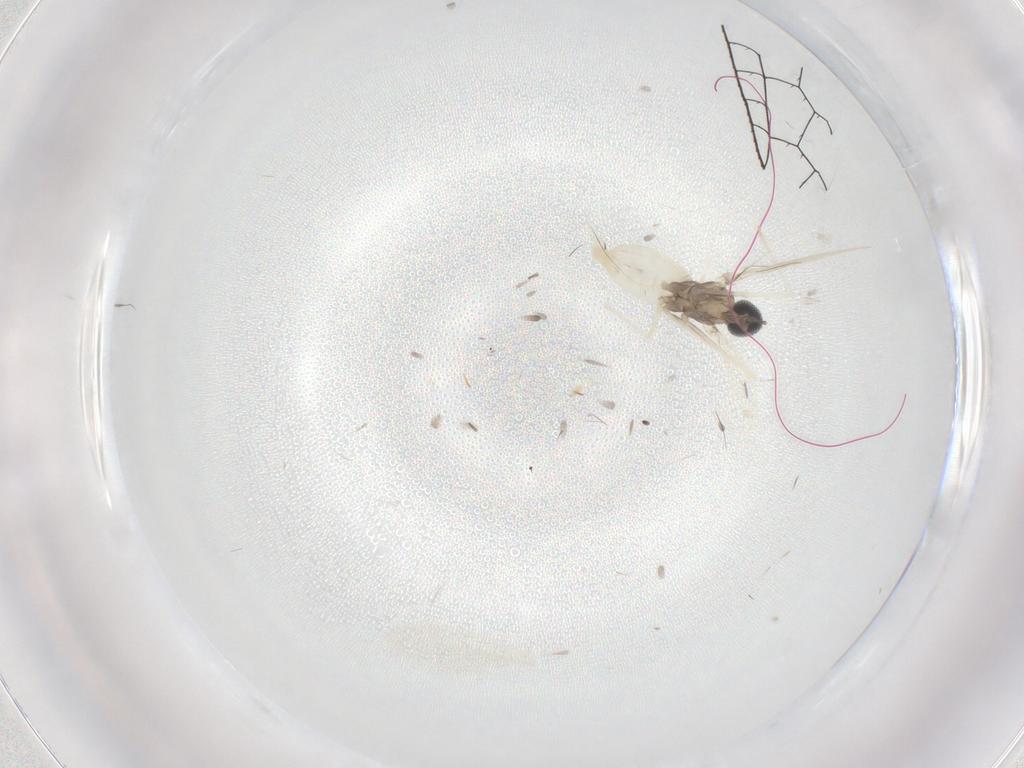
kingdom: Animalia
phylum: Arthropoda
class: Insecta
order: Diptera
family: Cecidomyiidae
